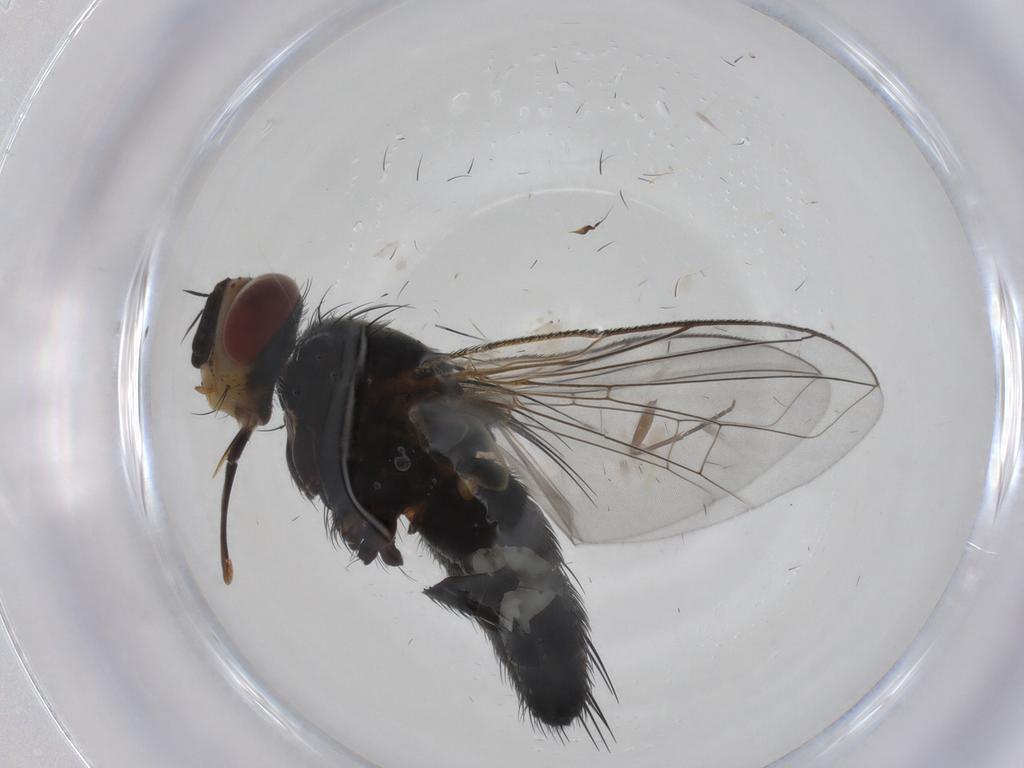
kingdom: Animalia
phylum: Arthropoda
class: Insecta
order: Diptera
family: Tachinidae
